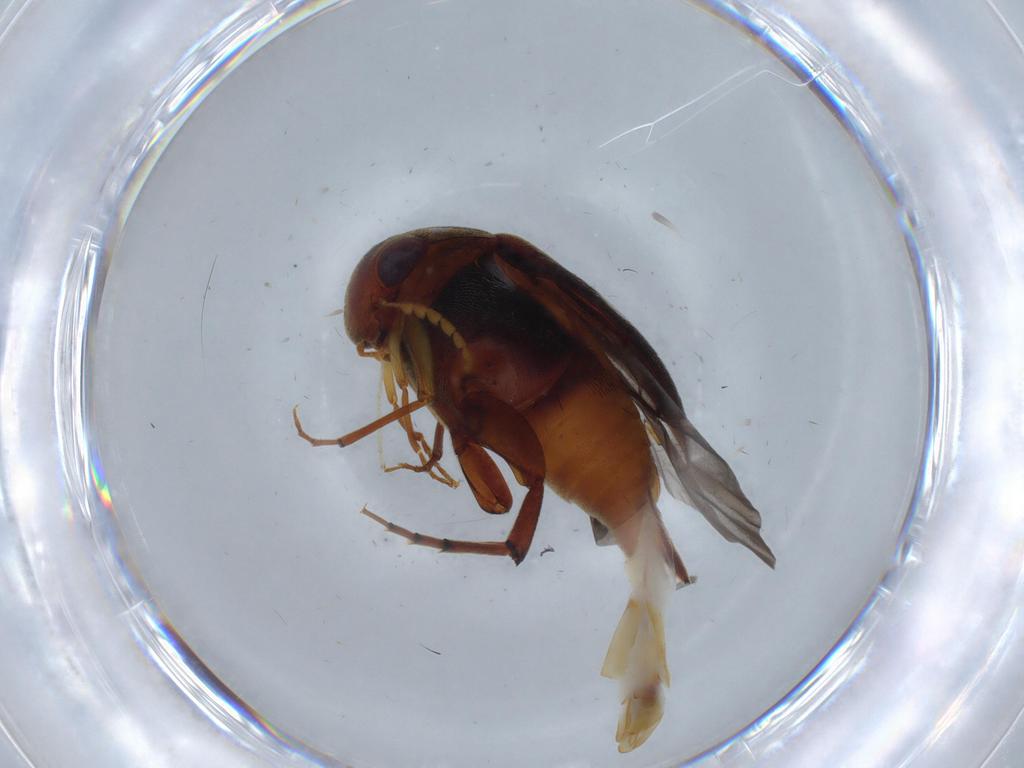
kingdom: Animalia
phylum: Arthropoda
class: Insecta
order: Coleoptera
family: Mordellidae
